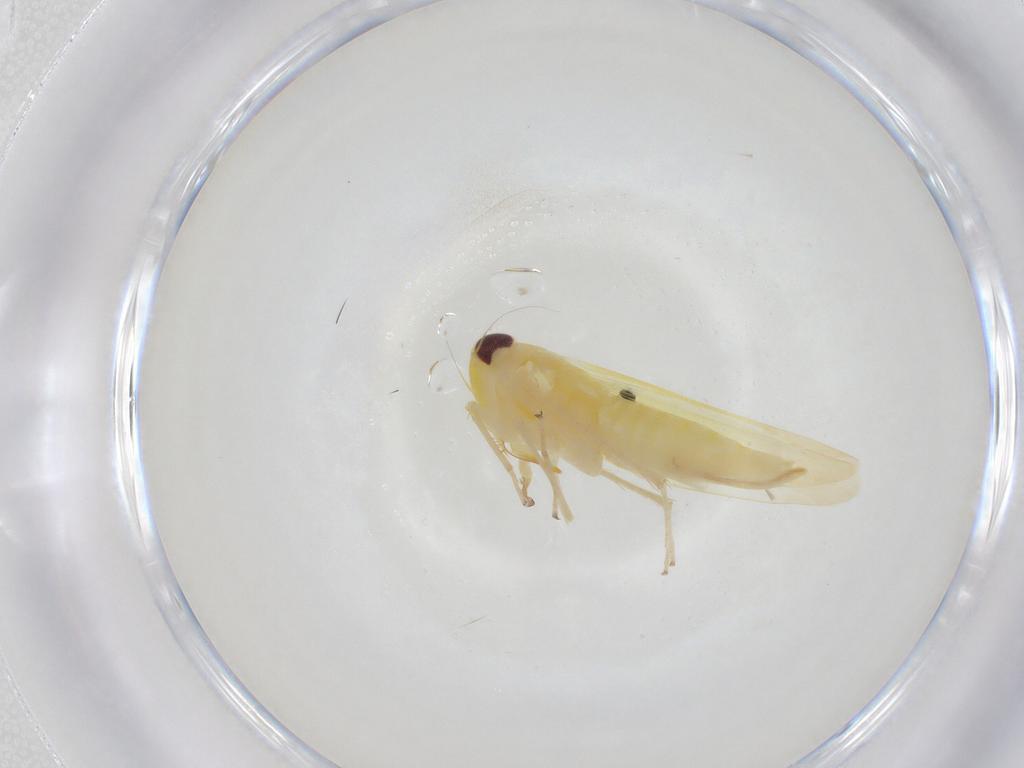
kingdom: Animalia
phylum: Arthropoda
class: Insecta
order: Hemiptera
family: Cicadellidae
